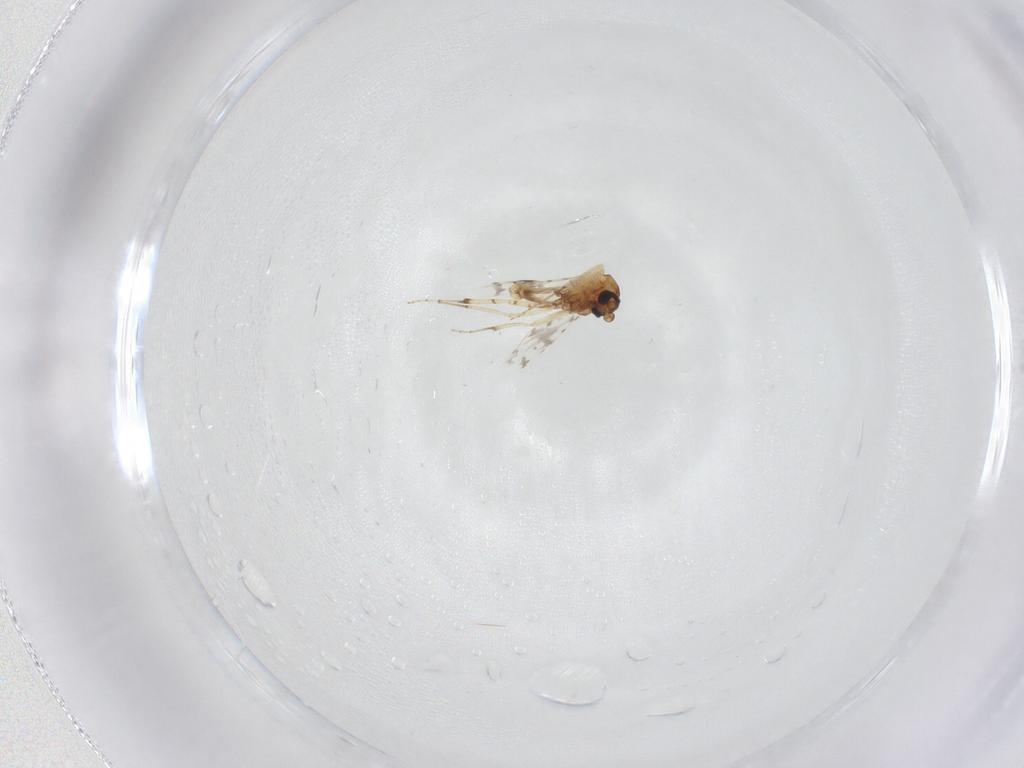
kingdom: Animalia
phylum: Arthropoda
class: Insecta
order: Diptera
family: Ceratopogonidae
